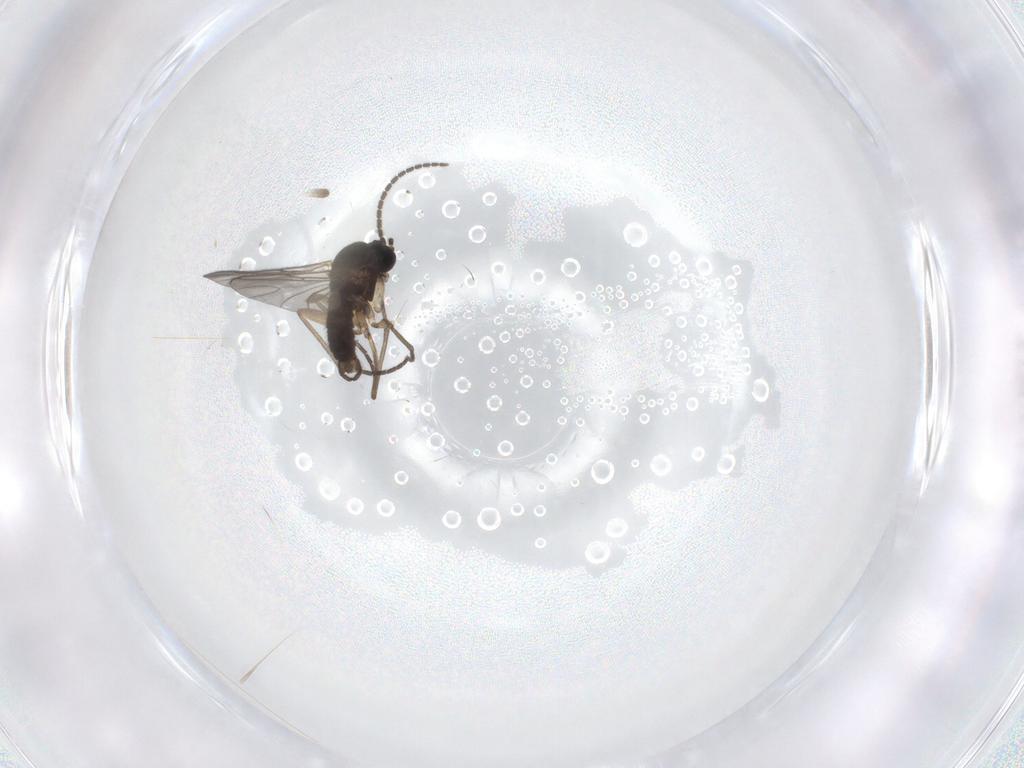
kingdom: Animalia
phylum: Arthropoda
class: Insecta
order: Diptera
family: Sciaridae
